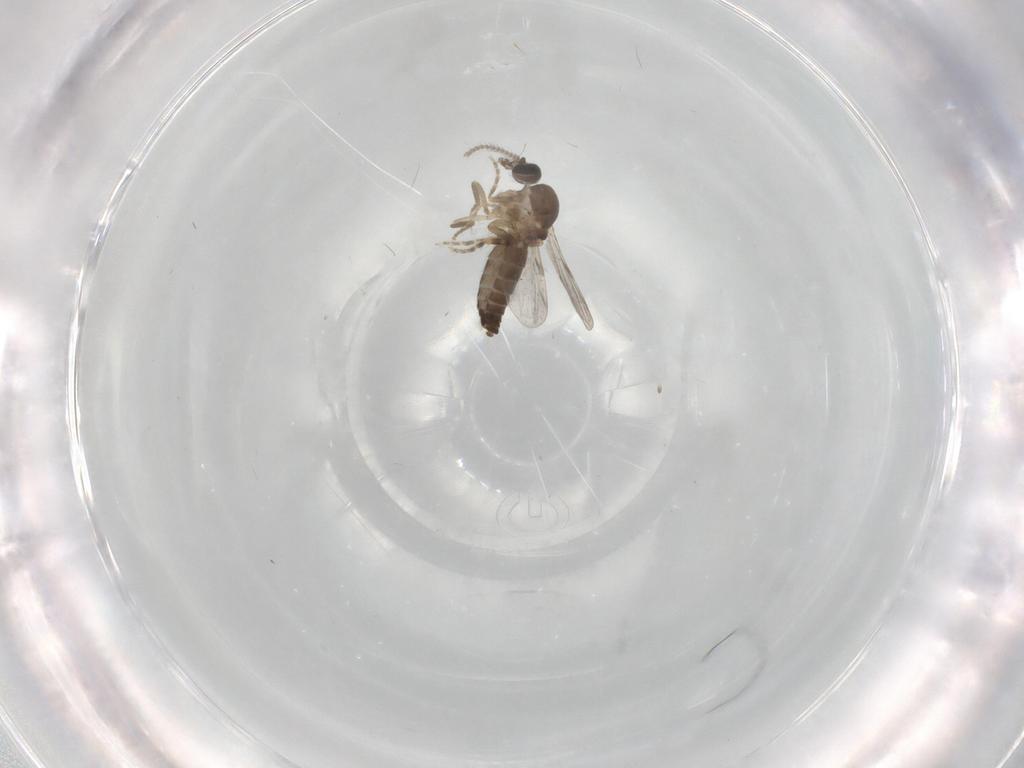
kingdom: Animalia
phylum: Arthropoda
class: Insecta
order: Diptera
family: Ceratopogonidae
